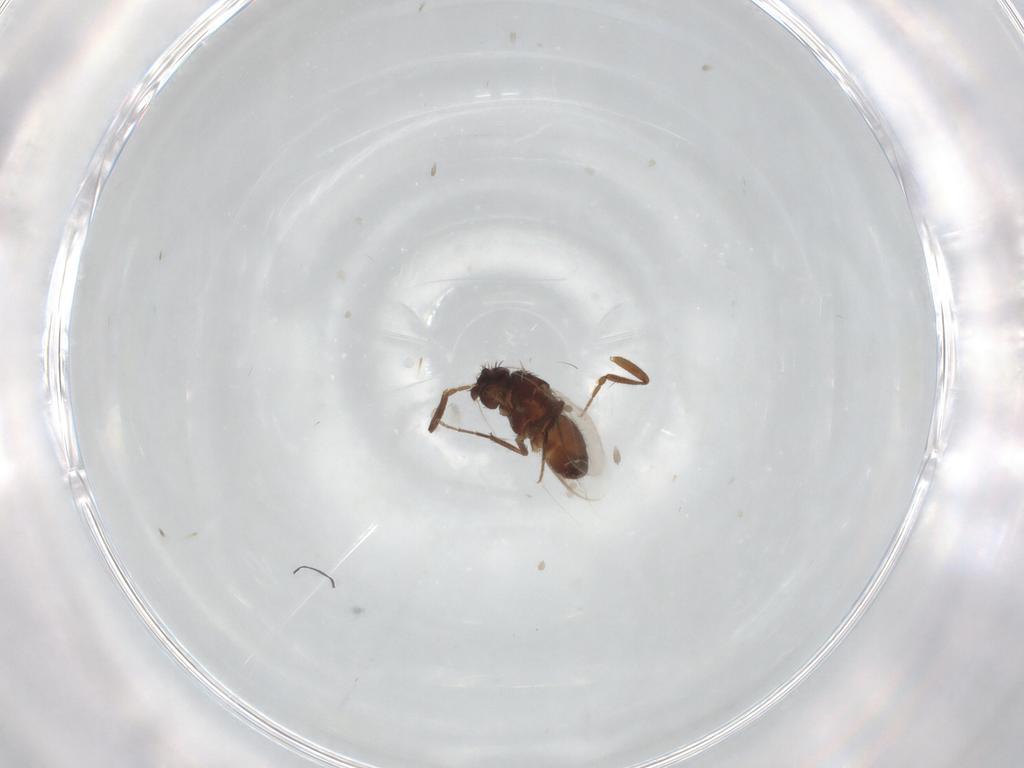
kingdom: Animalia
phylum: Arthropoda
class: Insecta
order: Diptera
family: Sphaeroceridae
